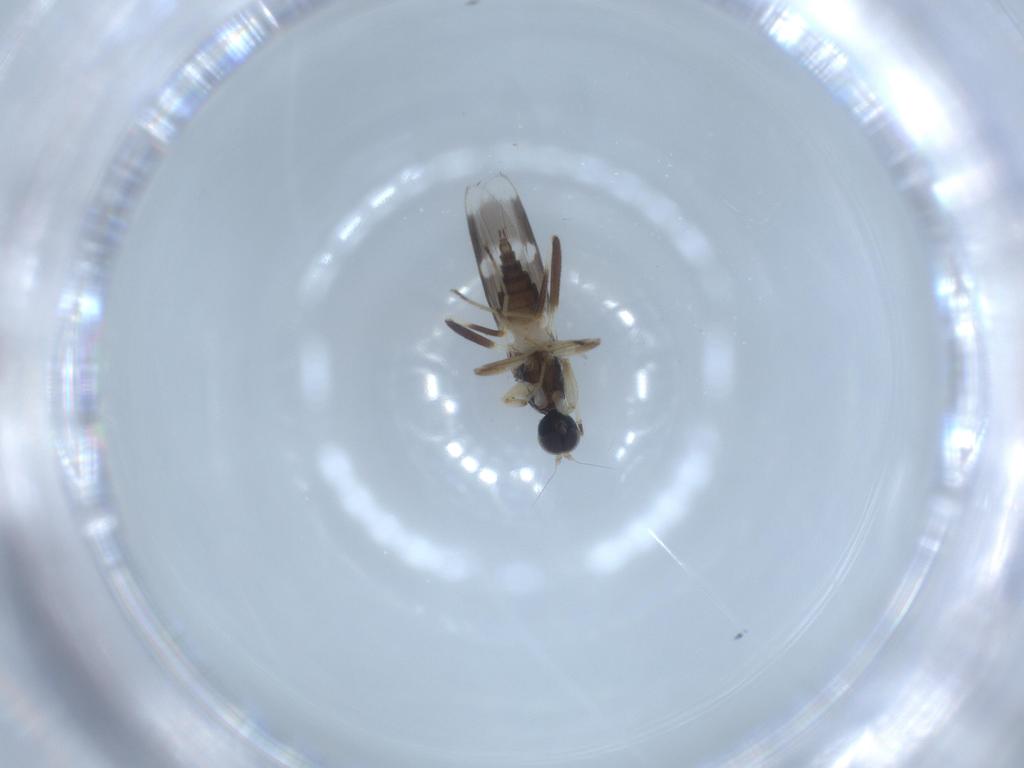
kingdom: Animalia
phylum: Arthropoda
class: Insecta
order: Diptera
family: Hybotidae
